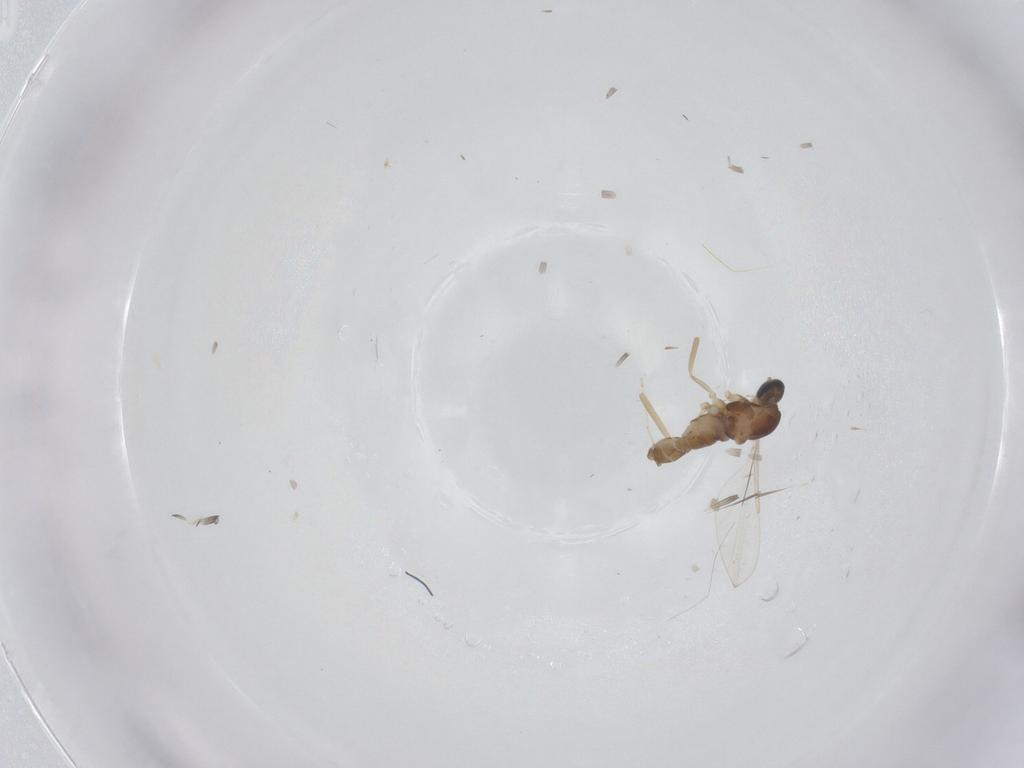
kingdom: Animalia
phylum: Arthropoda
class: Insecta
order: Diptera
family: Cecidomyiidae
